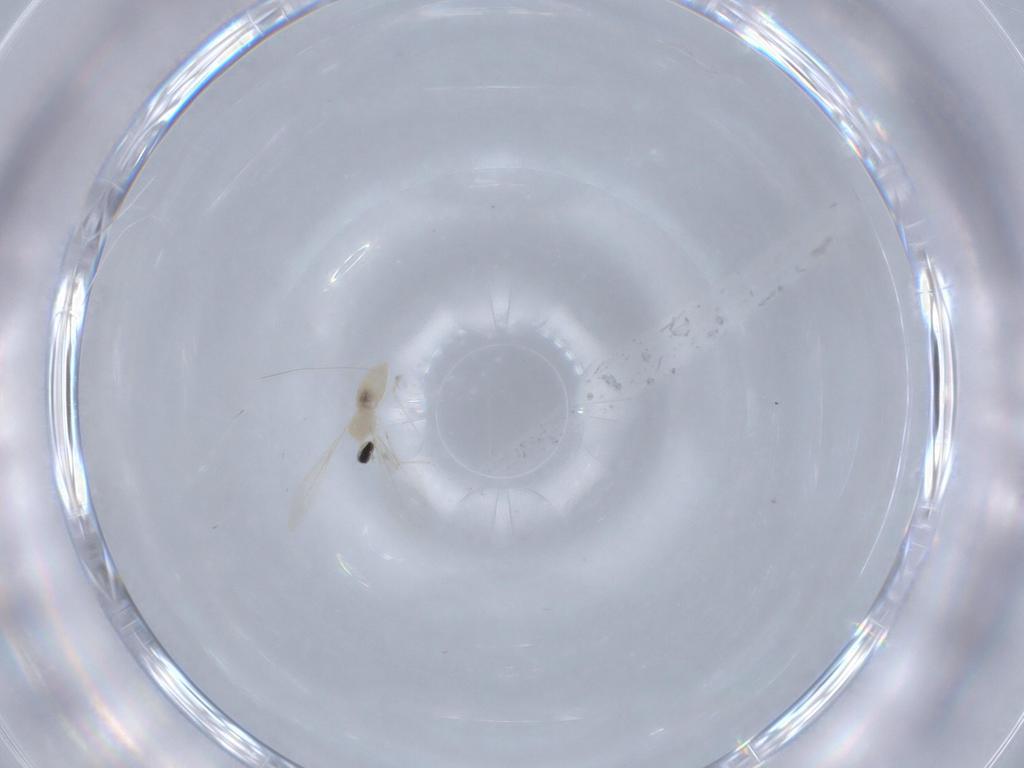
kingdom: Animalia
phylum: Arthropoda
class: Insecta
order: Diptera
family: Cecidomyiidae
